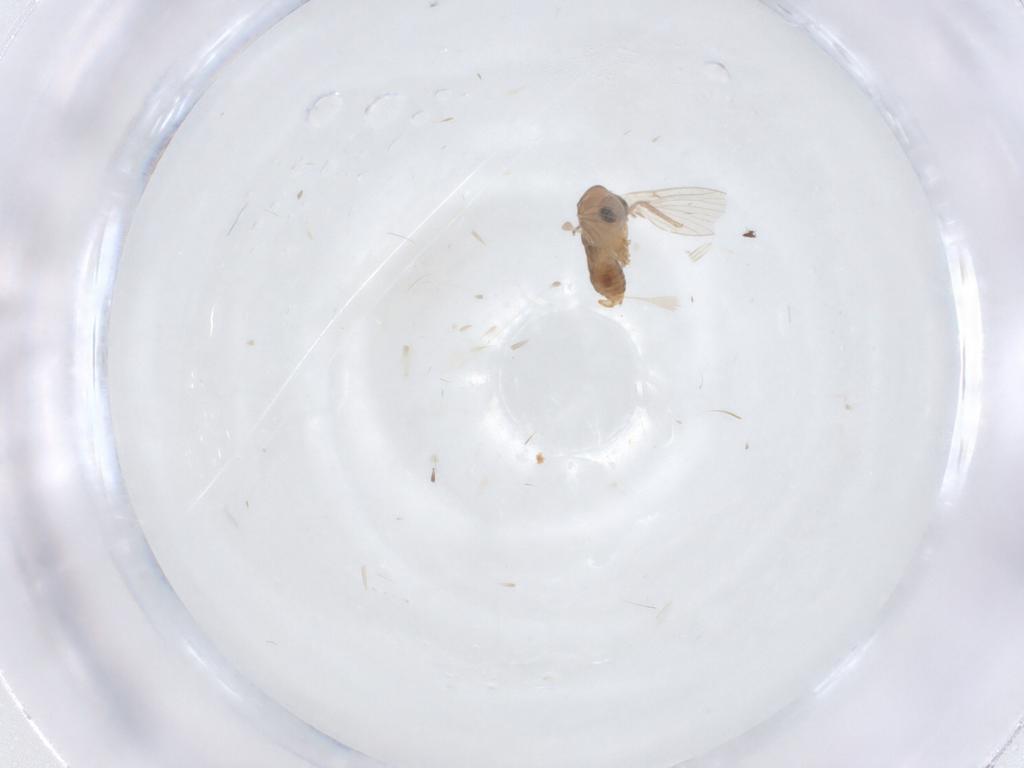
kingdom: Animalia
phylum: Arthropoda
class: Insecta
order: Diptera
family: Ceratopogonidae
